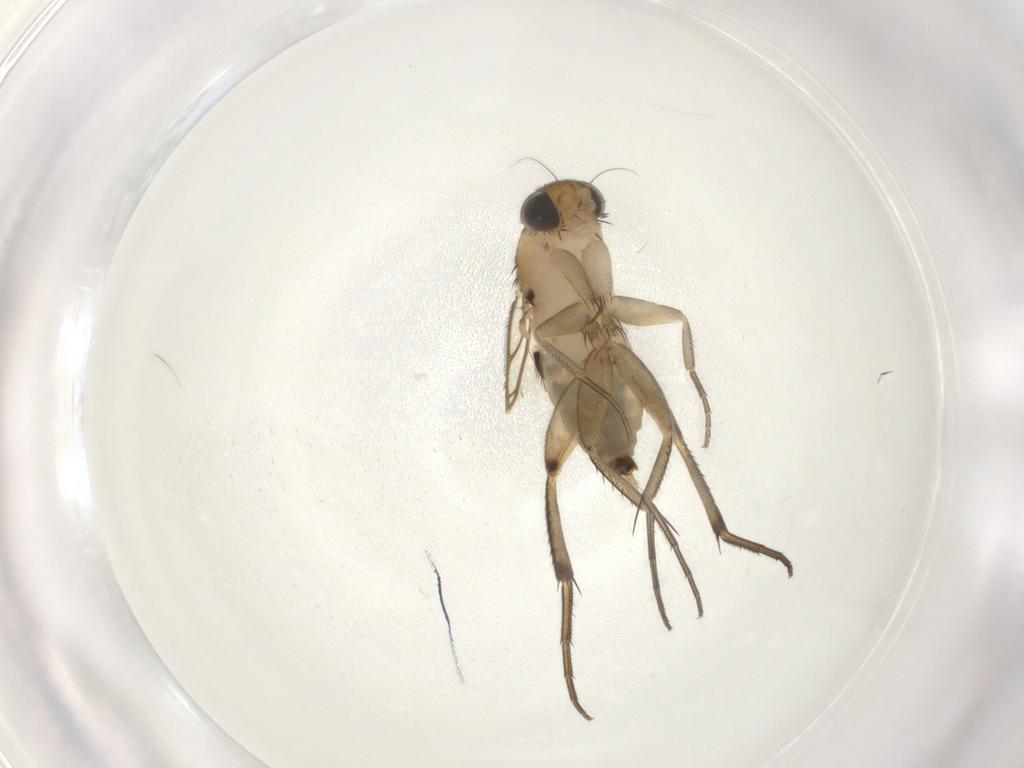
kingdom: Animalia
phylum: Arthropoda
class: Insecta
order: Diptera
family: Phoridae
